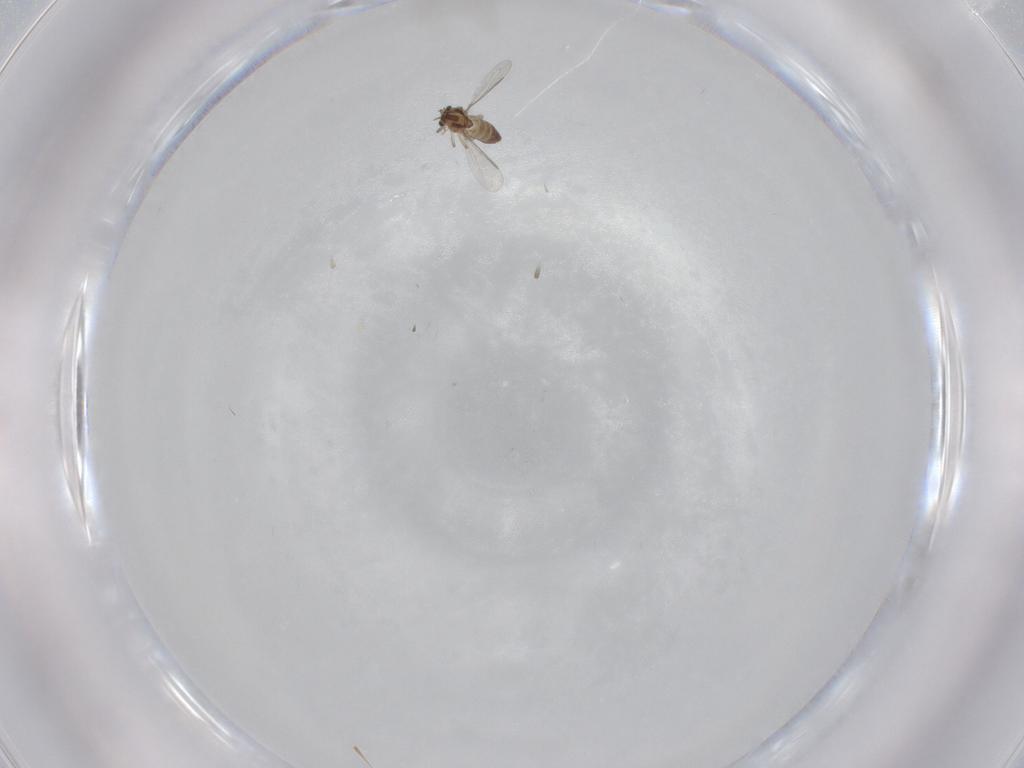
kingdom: Animalia
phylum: Arthropoda
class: Insecta
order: Diptera
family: Chironomidae
